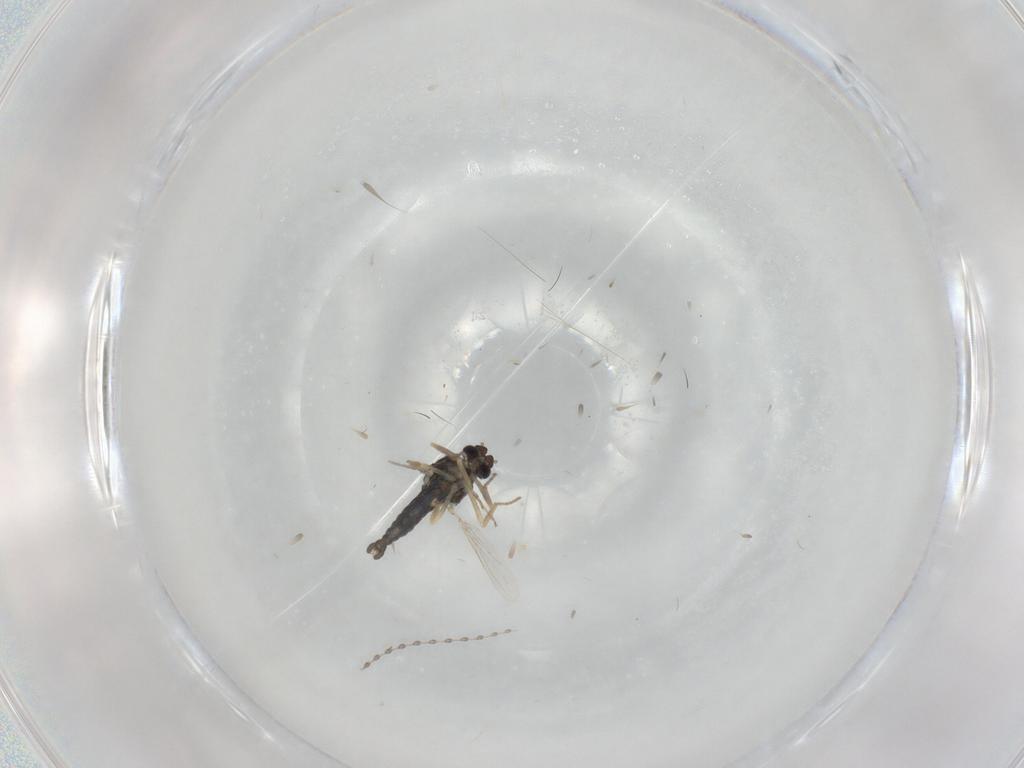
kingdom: Animalia
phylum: Arthropoda
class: Insecta
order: Diptera
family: Ceratopogonidae
